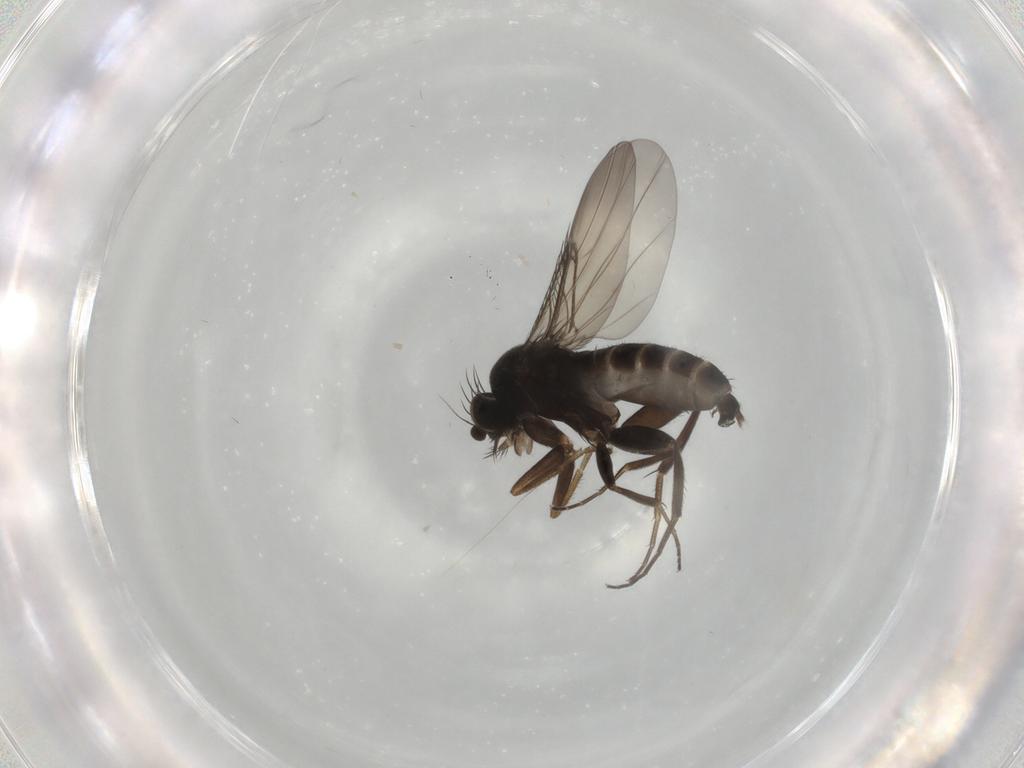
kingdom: Animalia
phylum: Arthropoda
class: Insecta
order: Diptera
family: Phoridae
